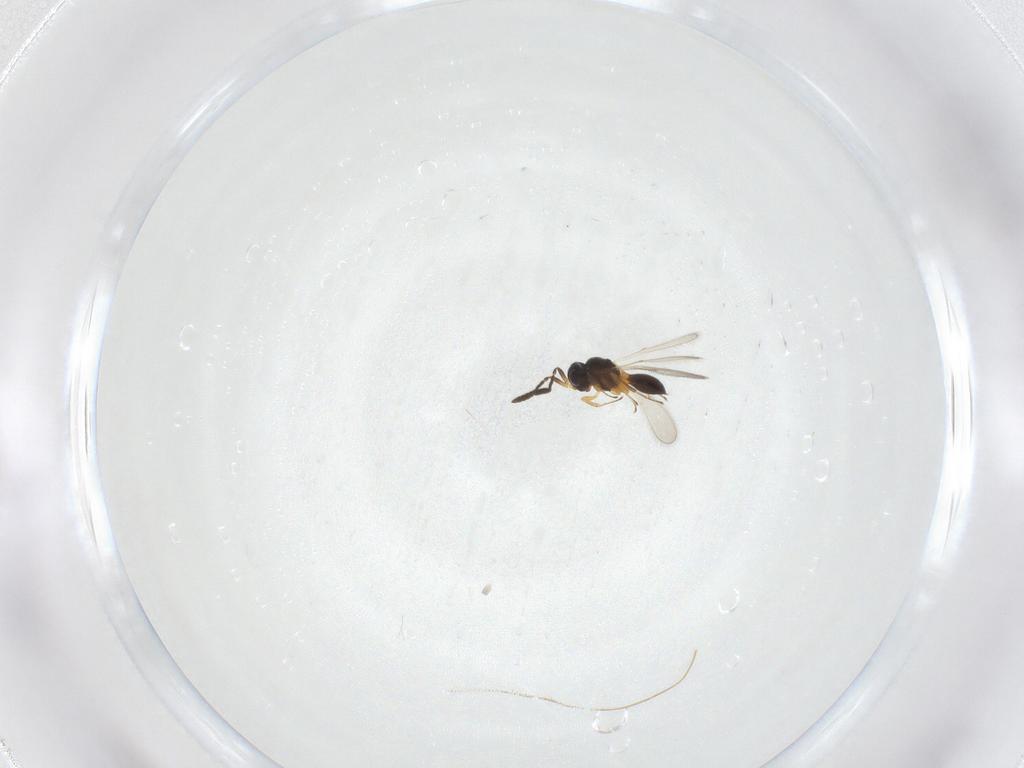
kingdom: Animalia
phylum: Arthropoda
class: Insecta
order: Hymenoptera
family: Scelionidae
